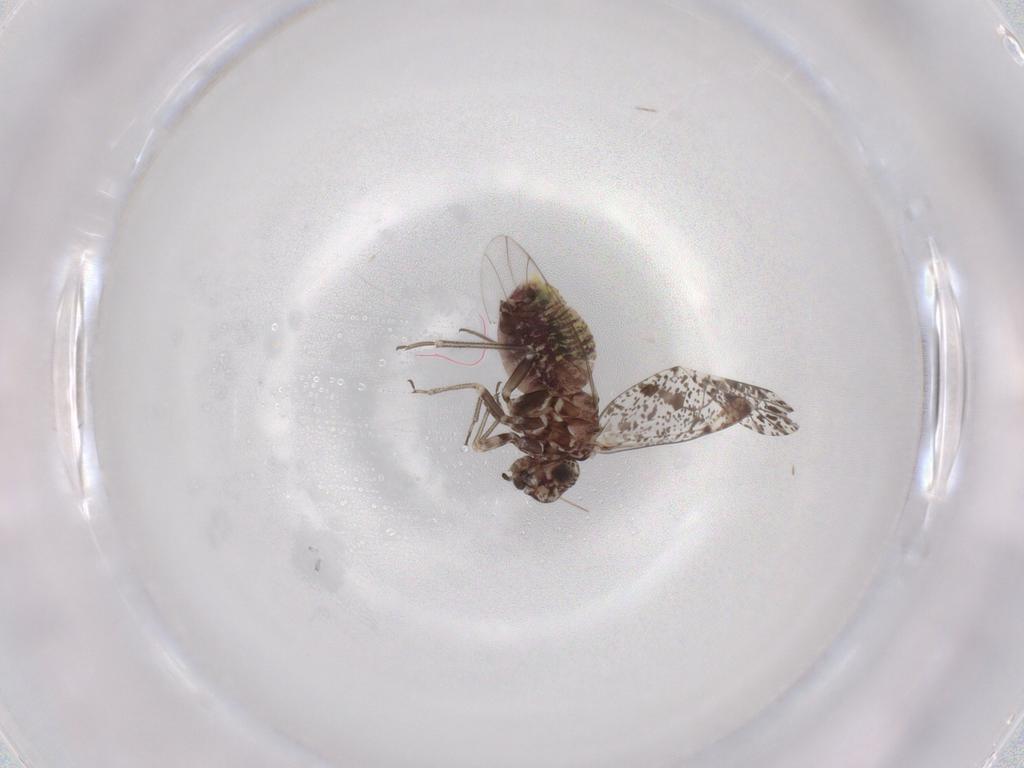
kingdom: Animalia
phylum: Arthropoda
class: Insecta
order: Psocodea
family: Psocidae
